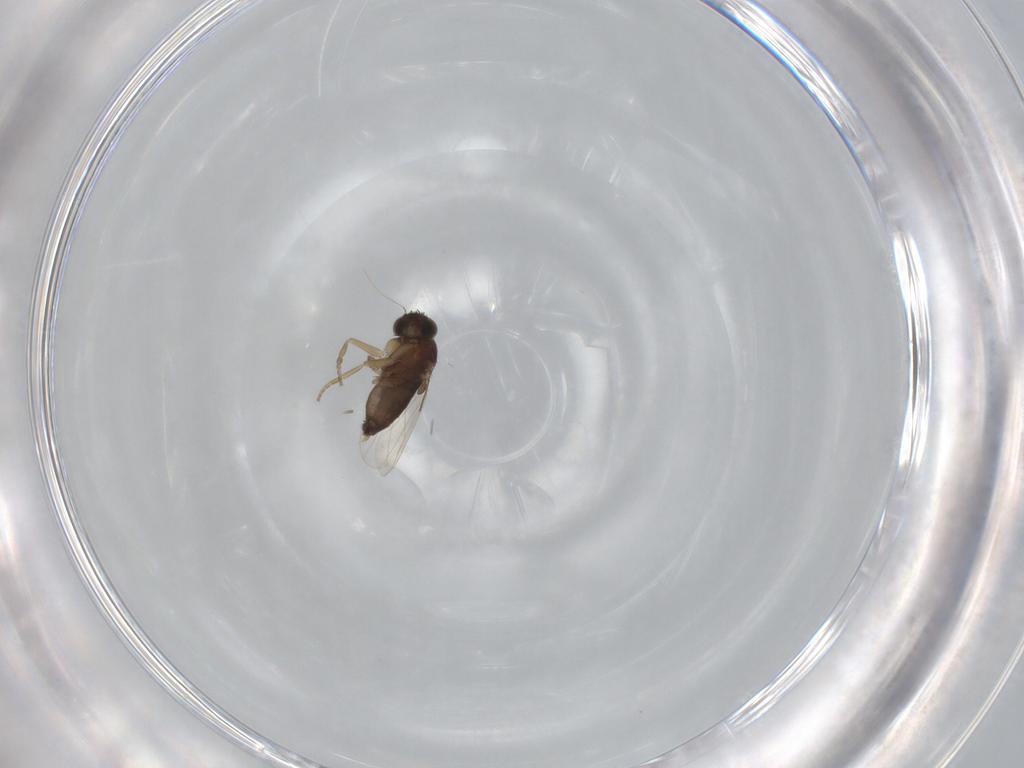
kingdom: Animalia
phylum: Arthropoda
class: Insecta
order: Diptera
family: Phoridae
